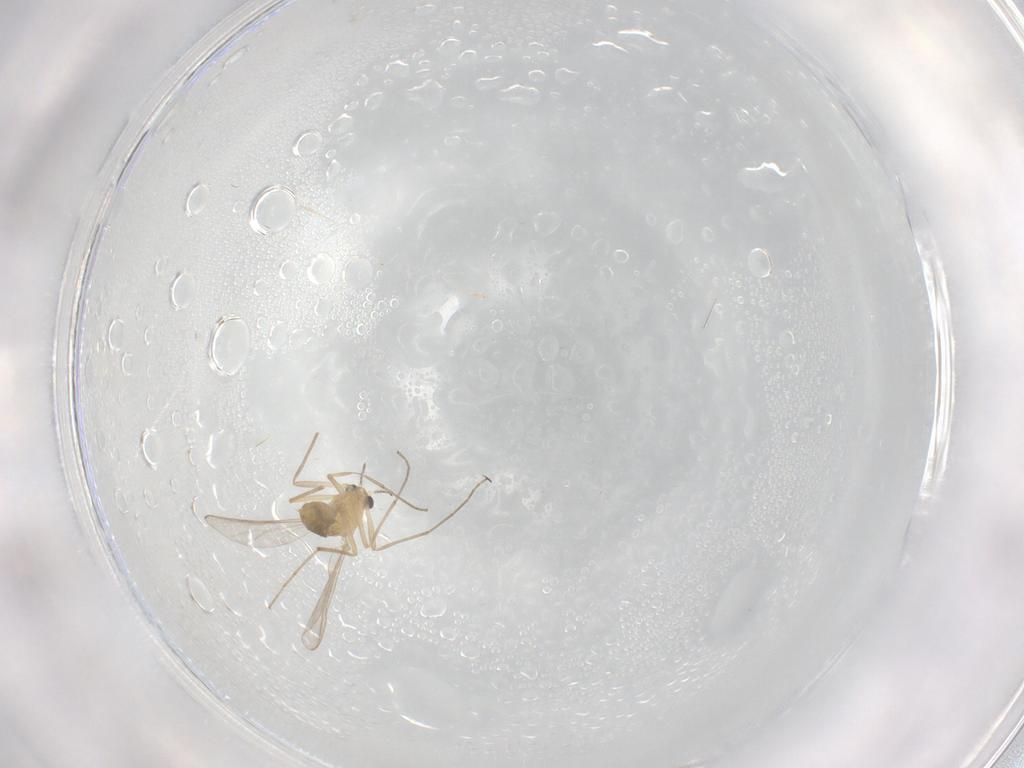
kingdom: Animalia
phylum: Arthropoda
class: Insecta
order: Diptera
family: Chironomidae
